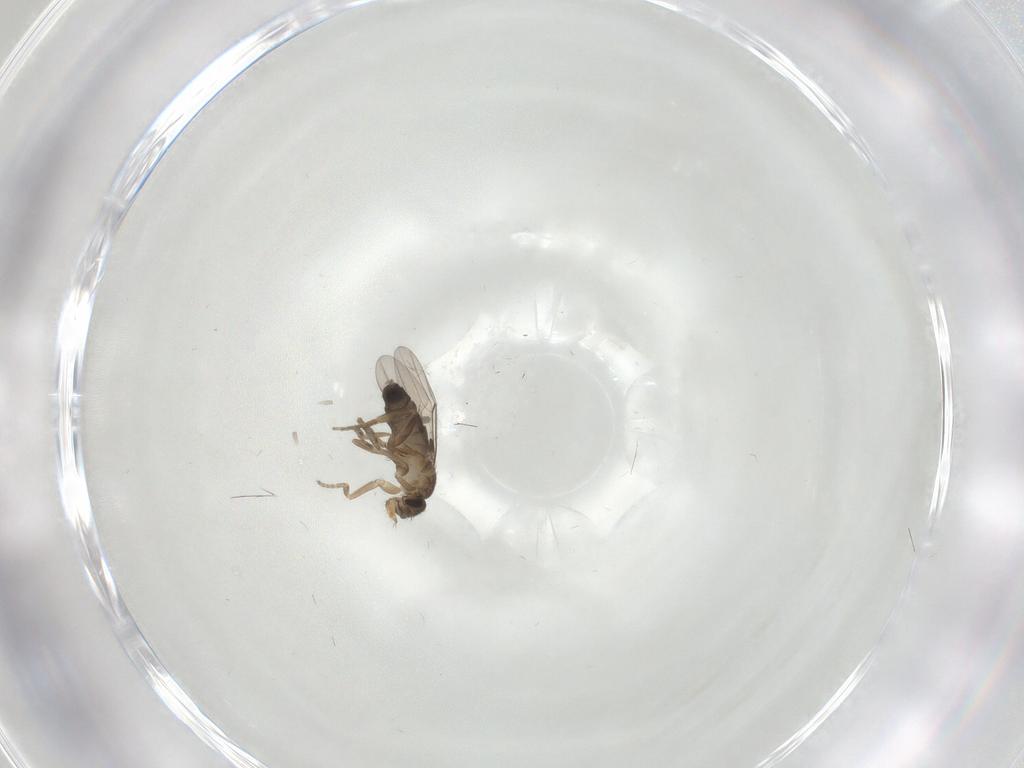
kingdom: Animalia
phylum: Arthropoda
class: Insecta
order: Diptera
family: Phoridae
